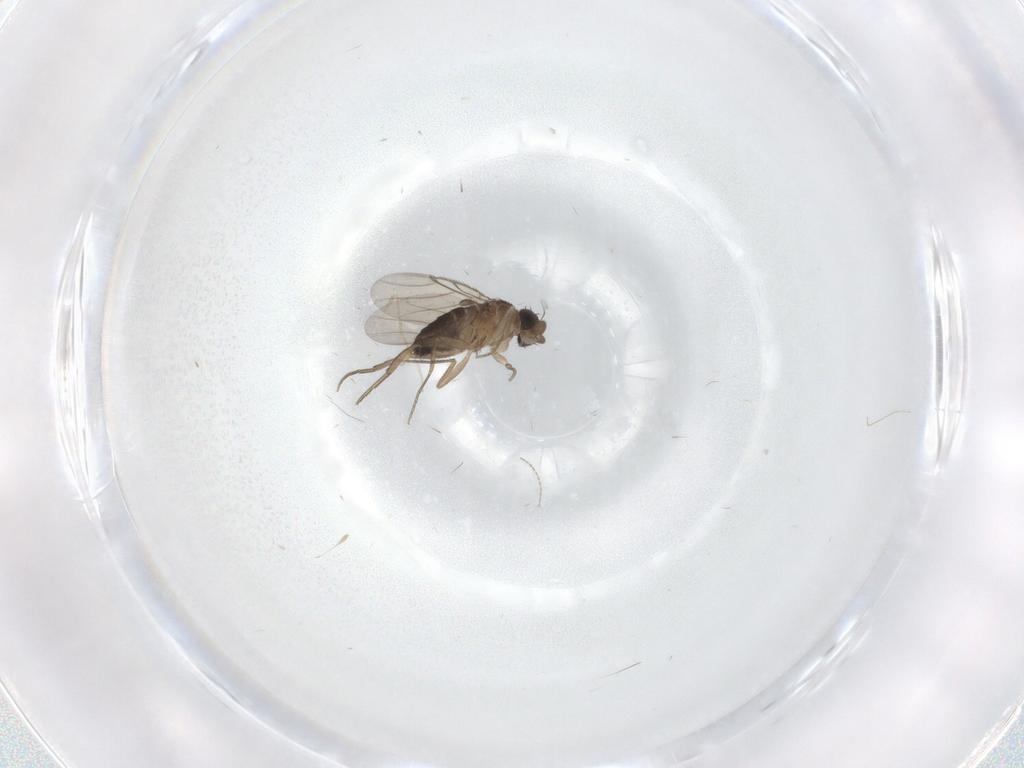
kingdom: Animalia
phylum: Arthropoda
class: Insecta
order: Diptera
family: Phoridae
